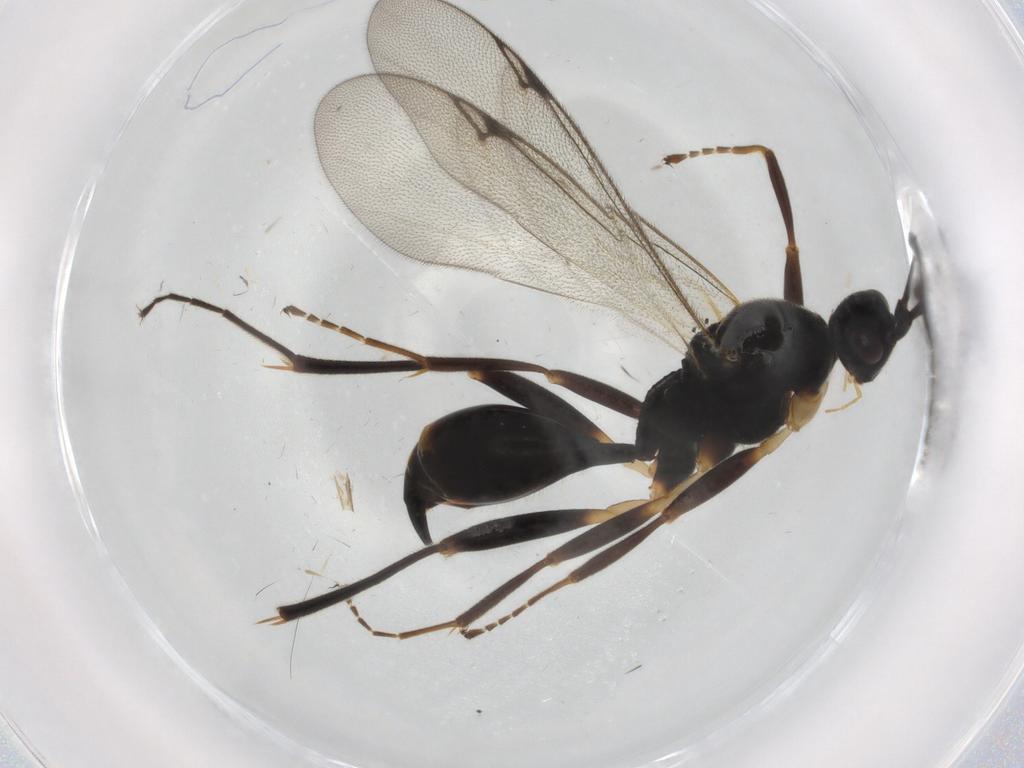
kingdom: Animalia
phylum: Arthropoda
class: Insecta
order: Hymenoptera
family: Proctotrupidae
